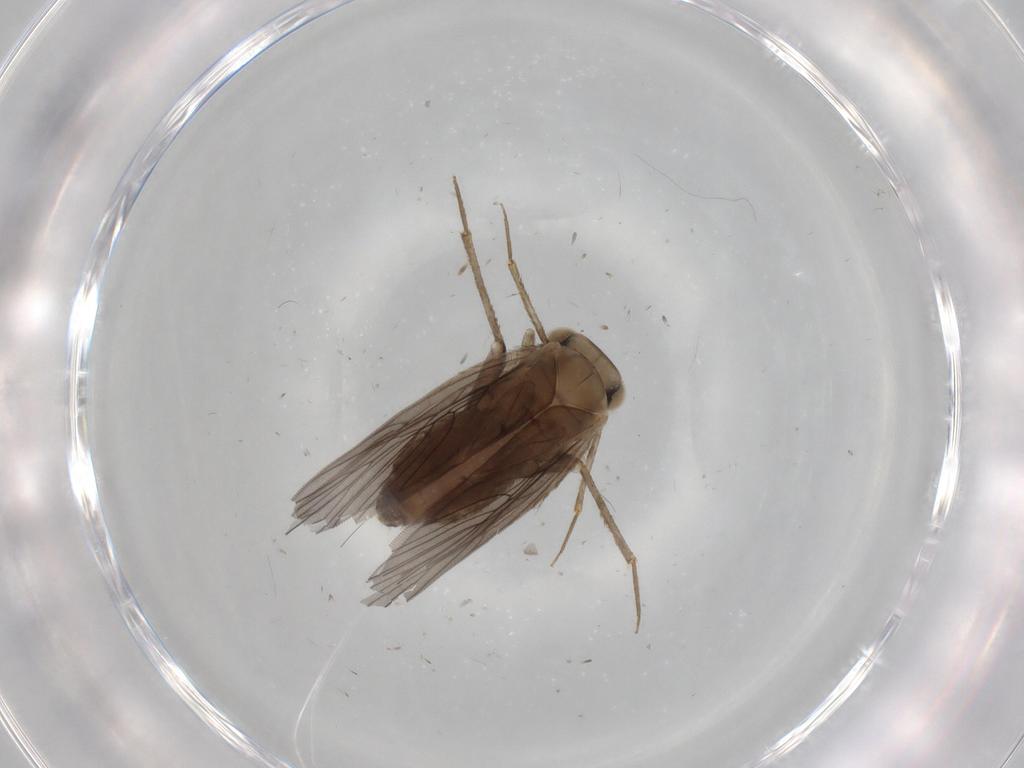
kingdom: Animalia
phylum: Arthropoda
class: Insecta
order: Psocodea
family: Lepidopsocidae
